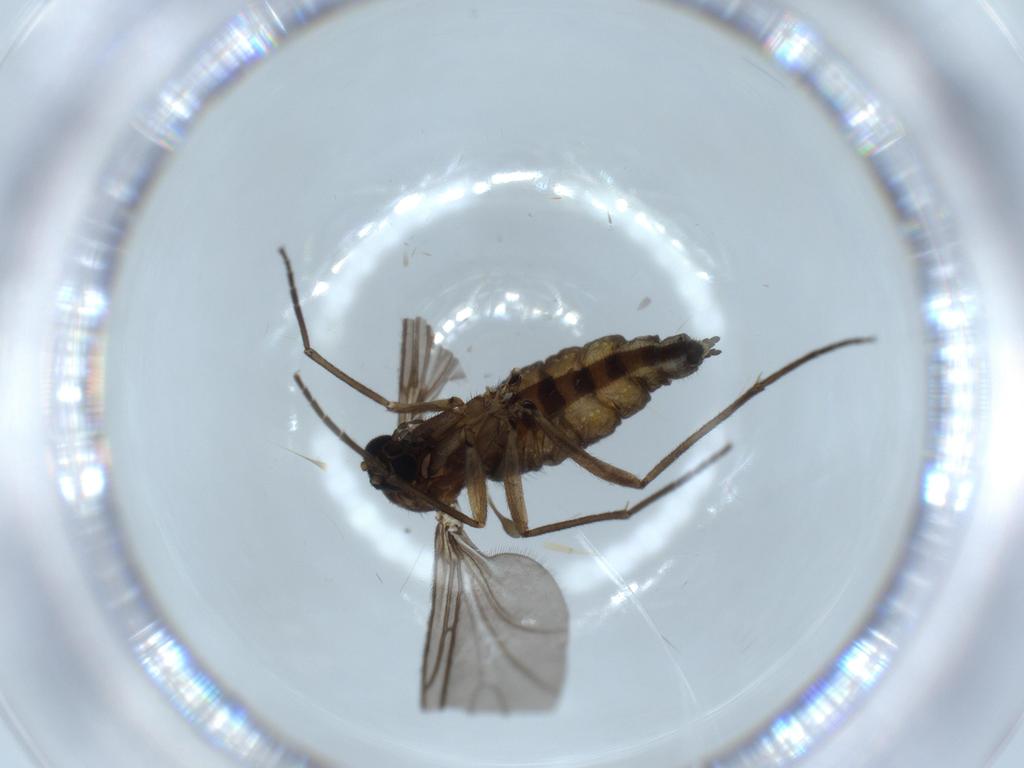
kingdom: Animalia
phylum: Arthropoda
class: Insecta
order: Diptera
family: Sciaridae
